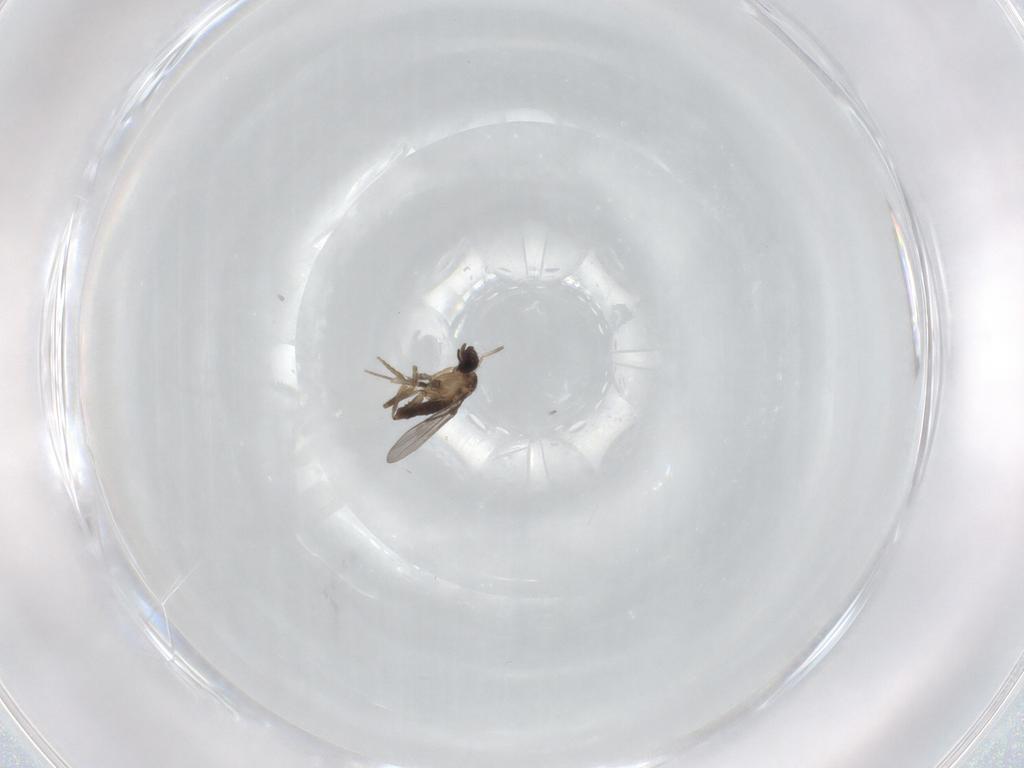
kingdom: Animalia
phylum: Arthropoda
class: Insecta
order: Diptera
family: Phoridae
